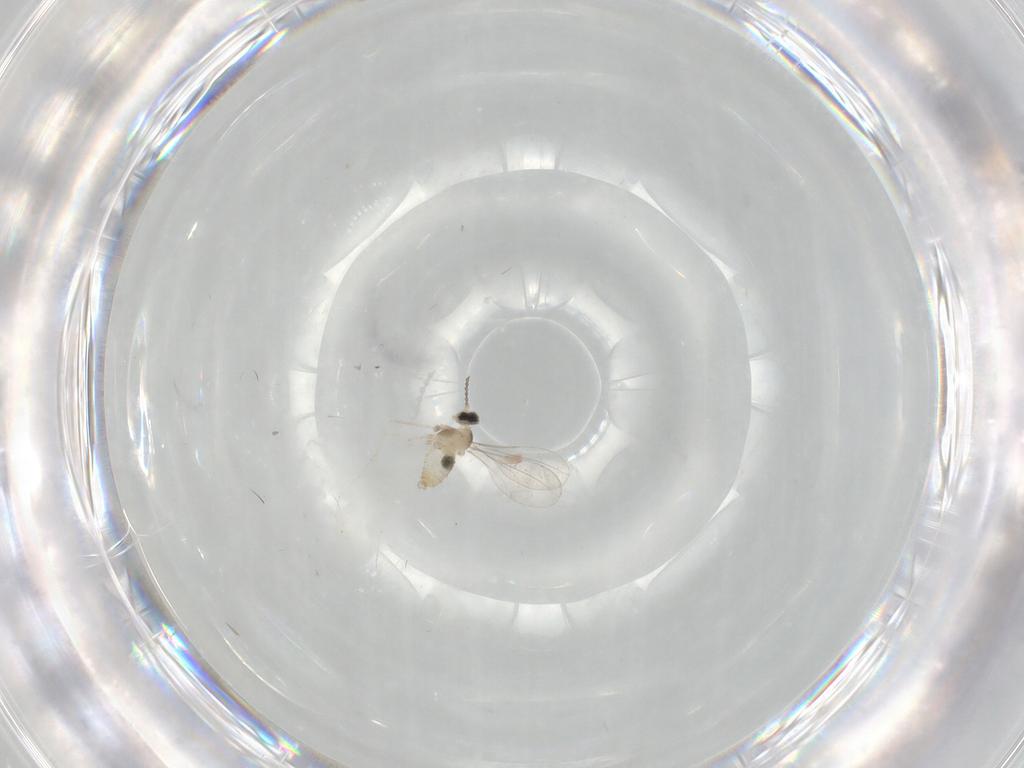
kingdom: Animalia
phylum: Arthropoda
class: Insecta
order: Diptera
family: Cecidomyiidae
